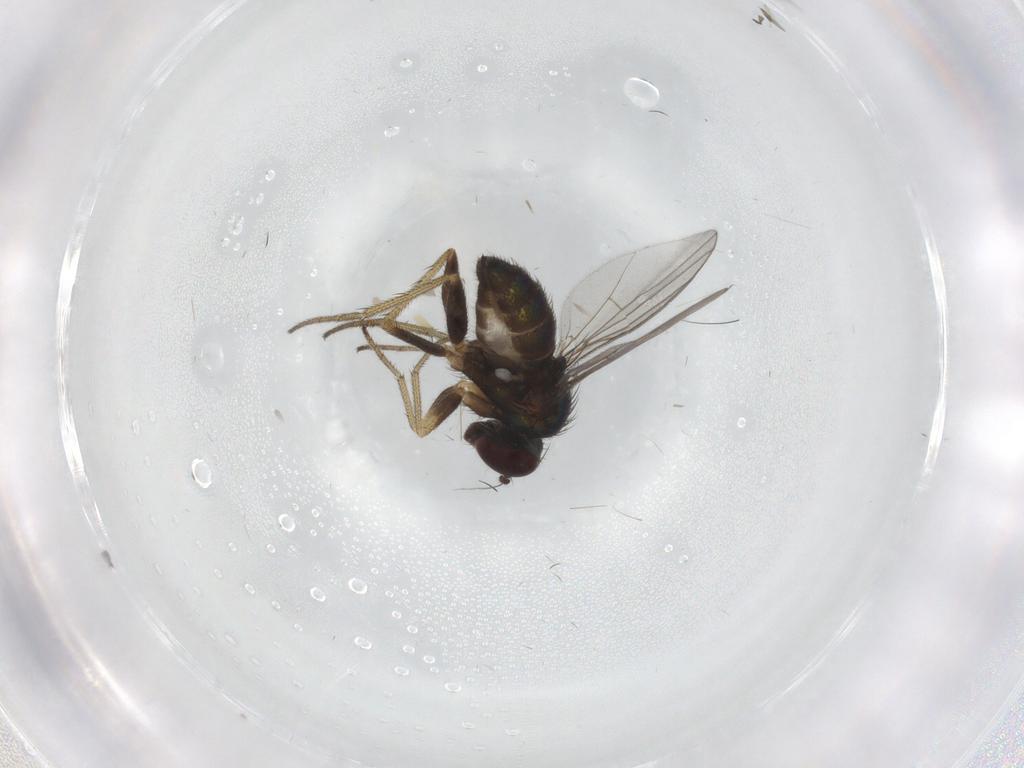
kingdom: Animalia
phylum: Arthropoda
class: Insecta
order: Diptera
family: Dolichopodidae
